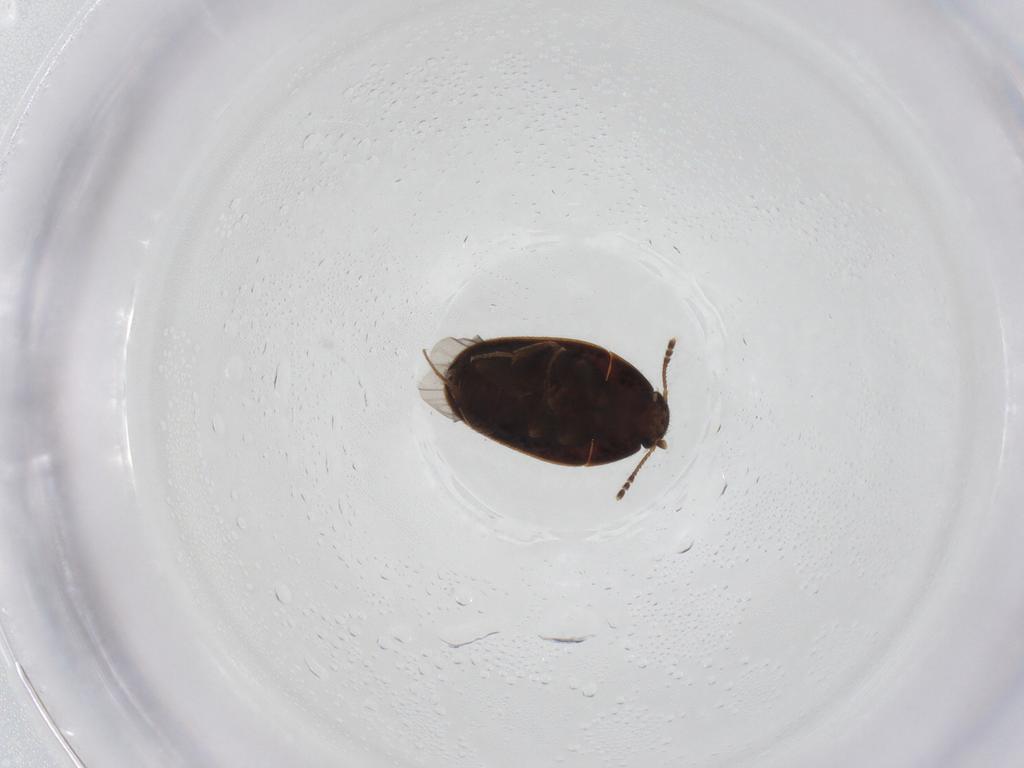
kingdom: Animalia
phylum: Arthropoda
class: Insecta
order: Coleoptera
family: Mycetophagidae
